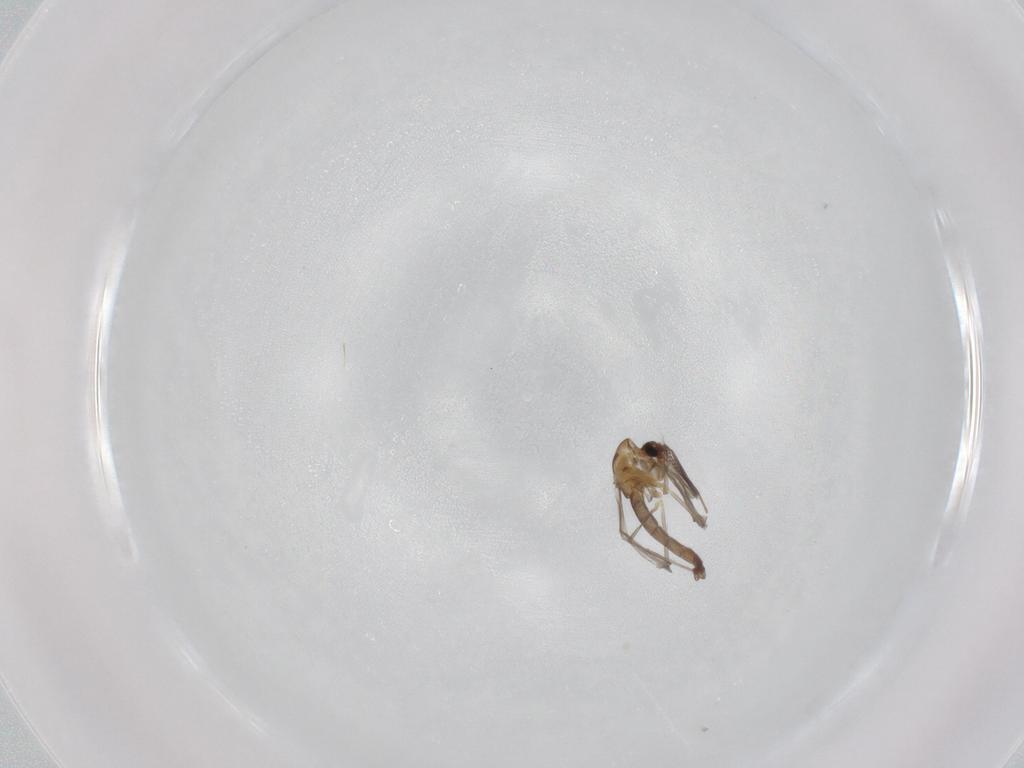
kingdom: Animalia
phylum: Arthropoda
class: Insecta
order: Diptera
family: Chironomidae
